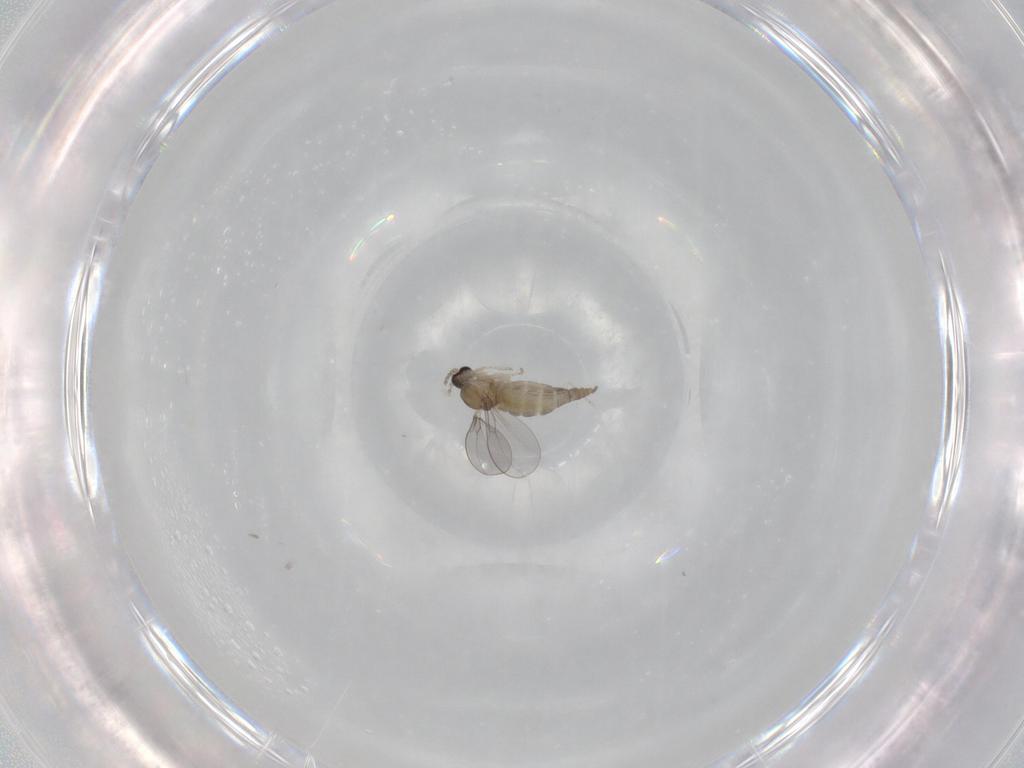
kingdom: Animalia
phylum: Arthropoda
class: Insecta
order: Diptera
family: Cecidomyiidae
